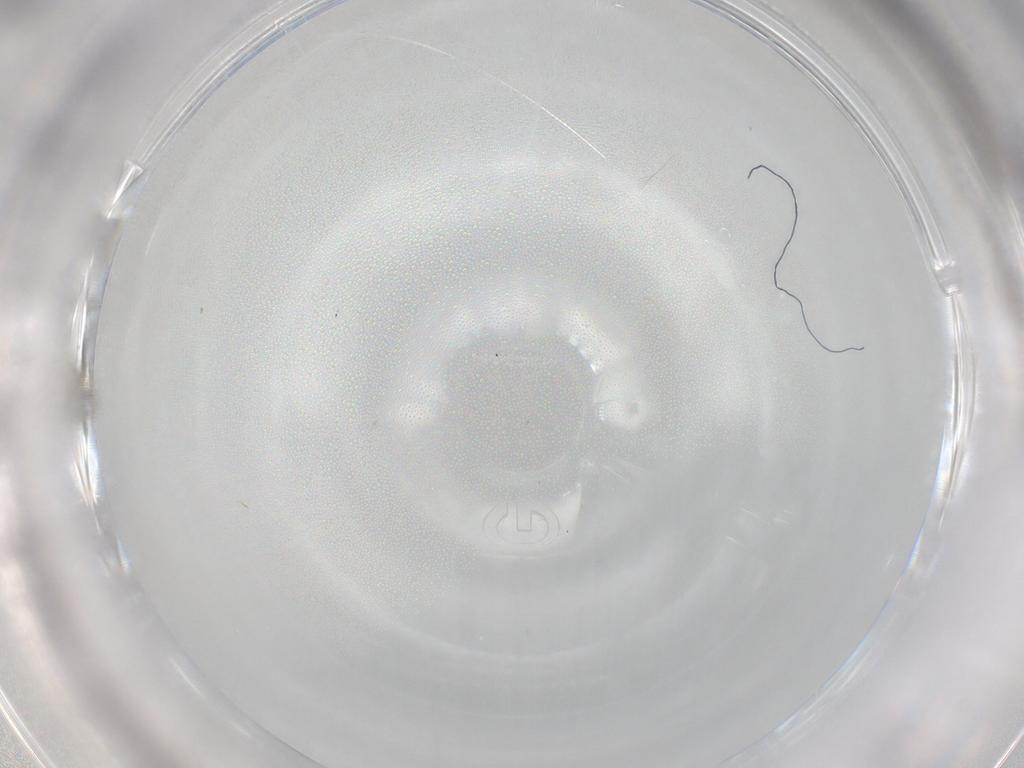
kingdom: Animalia
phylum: Arthropoda
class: Insecta
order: Diptera
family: Cecidomyiidae
